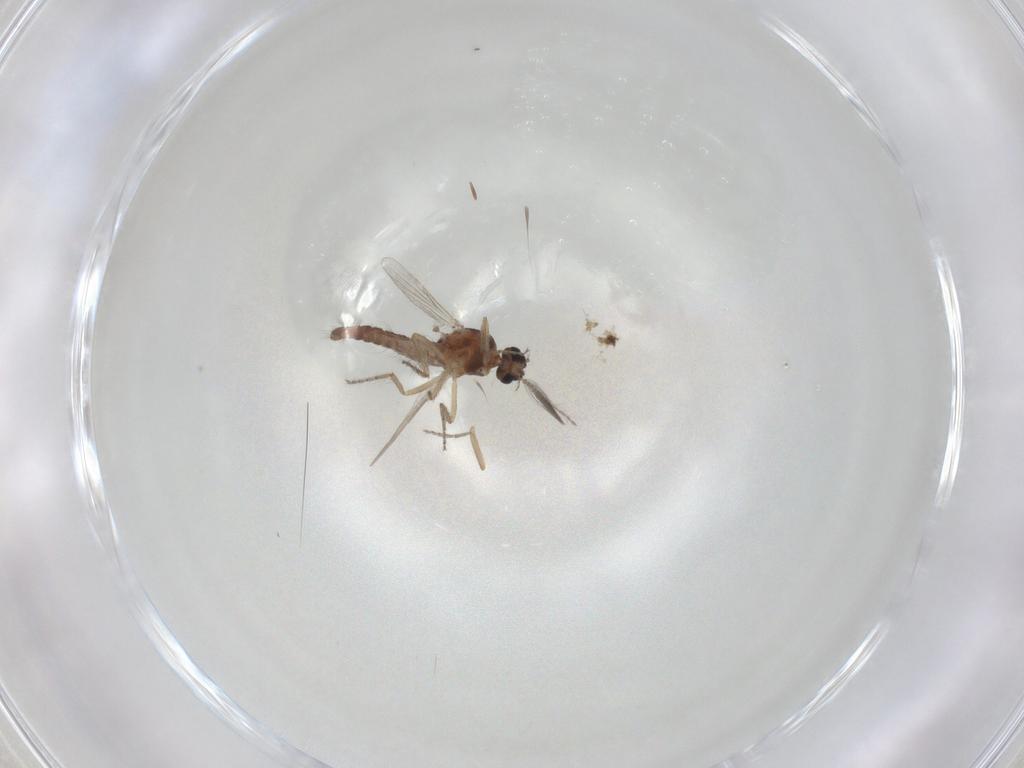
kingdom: Animalia
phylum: Arthropoda
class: Insecta
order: Diptera
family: Ceratopogonidae
